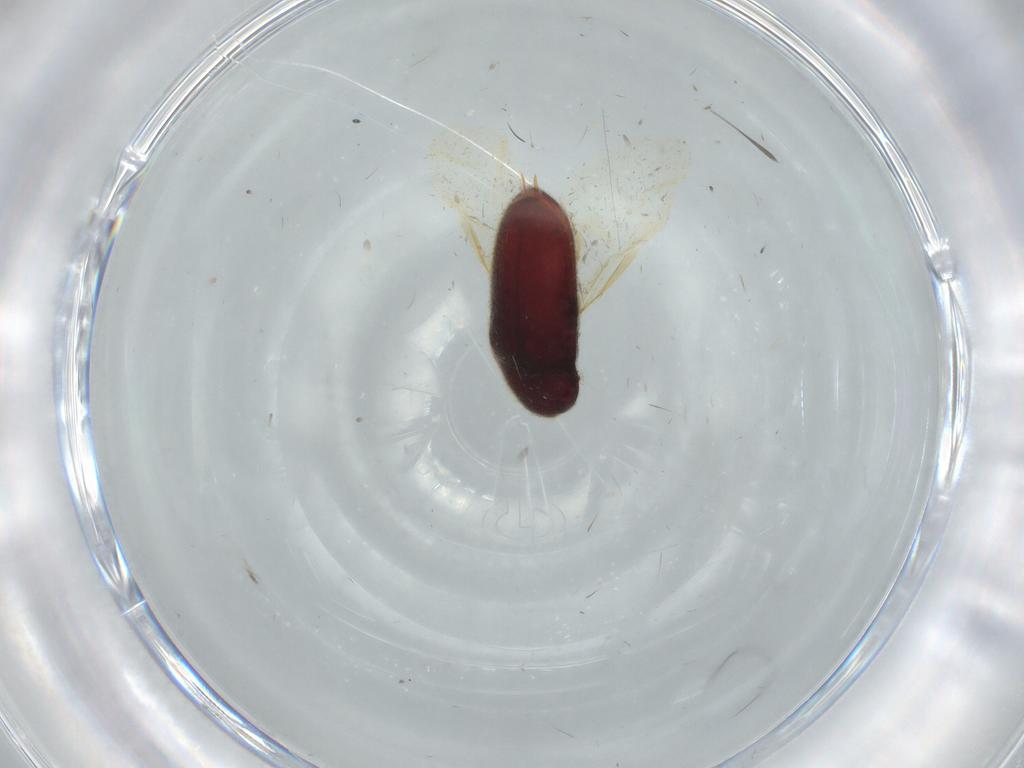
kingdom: Animalia
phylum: Arthropoda
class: Insecta
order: Coleoptera
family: Throscidae
